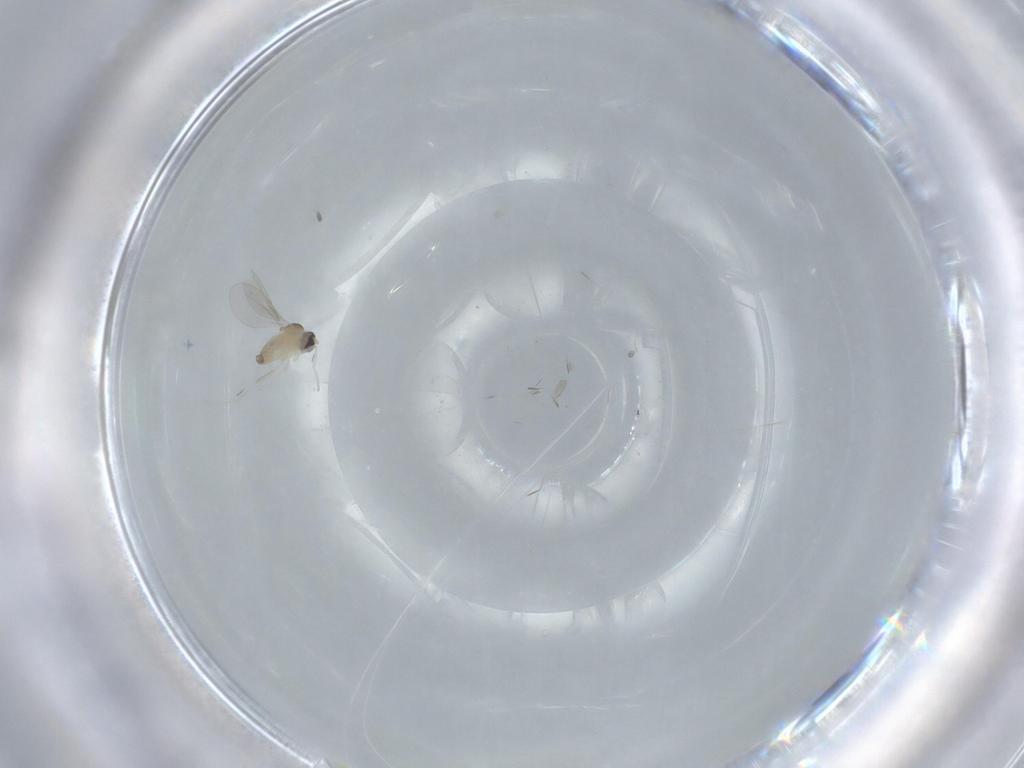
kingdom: Animalia
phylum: Arthropoda
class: Insecta
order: Diptera
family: Cecidomyiidae
